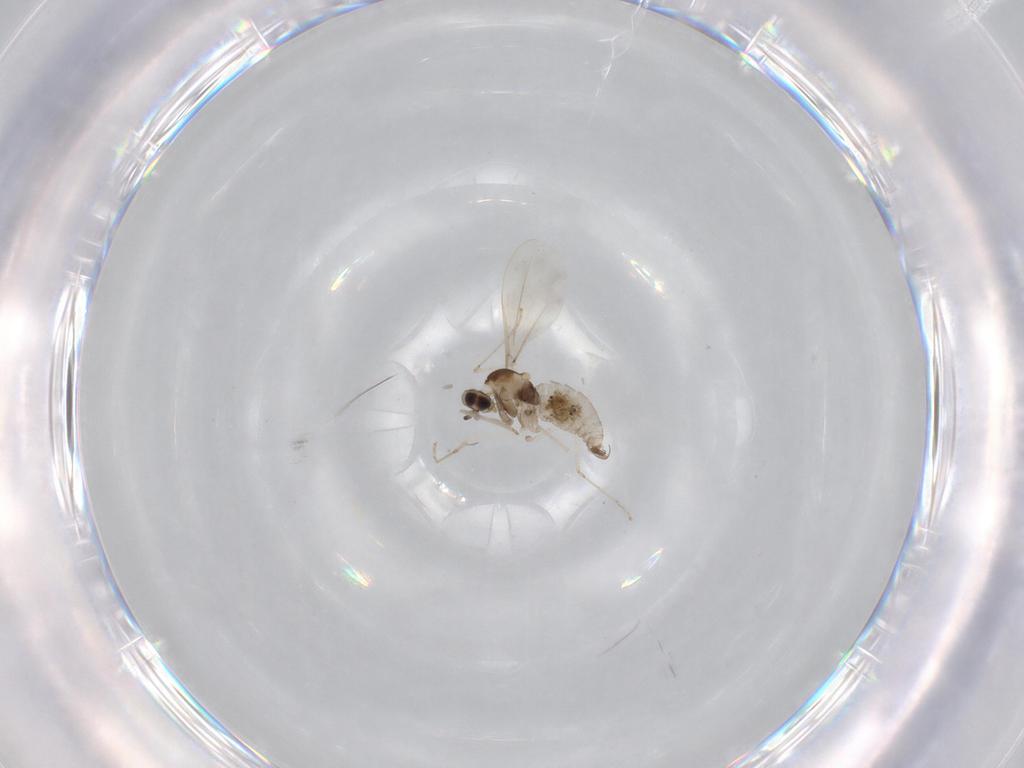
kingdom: Animalia
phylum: Arthropoda
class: Insecta
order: Diptera
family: Cecidomyiidae
